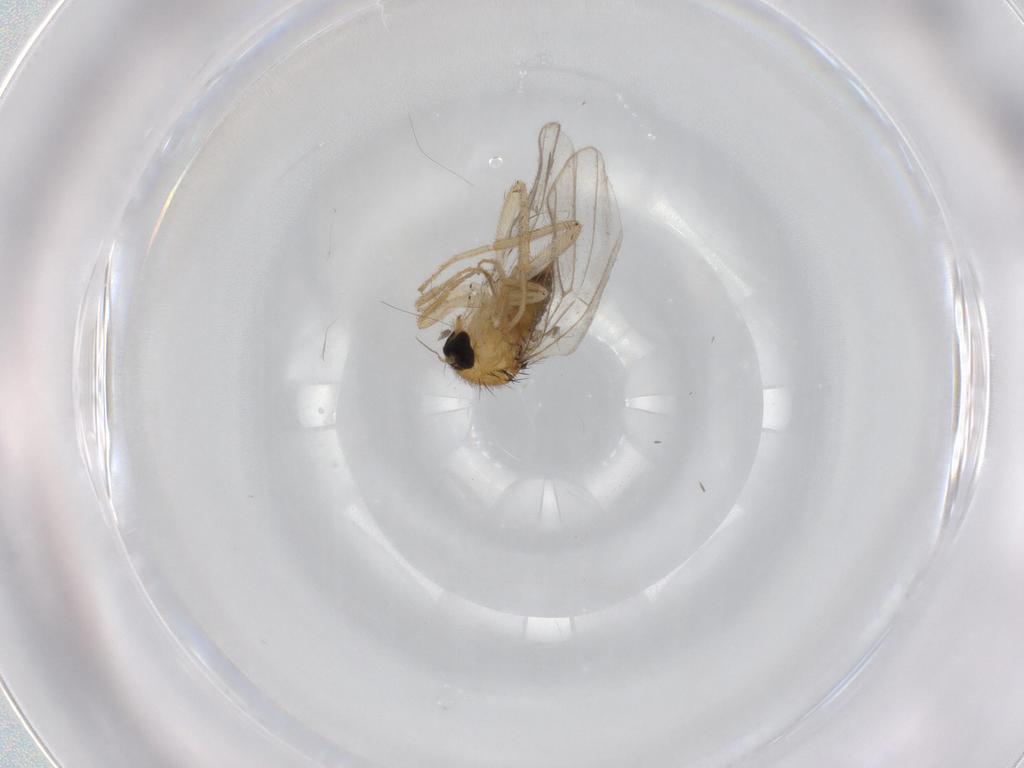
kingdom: Animalia
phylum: Arthropoda
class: Insecta
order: Diptera
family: Hybotidae
